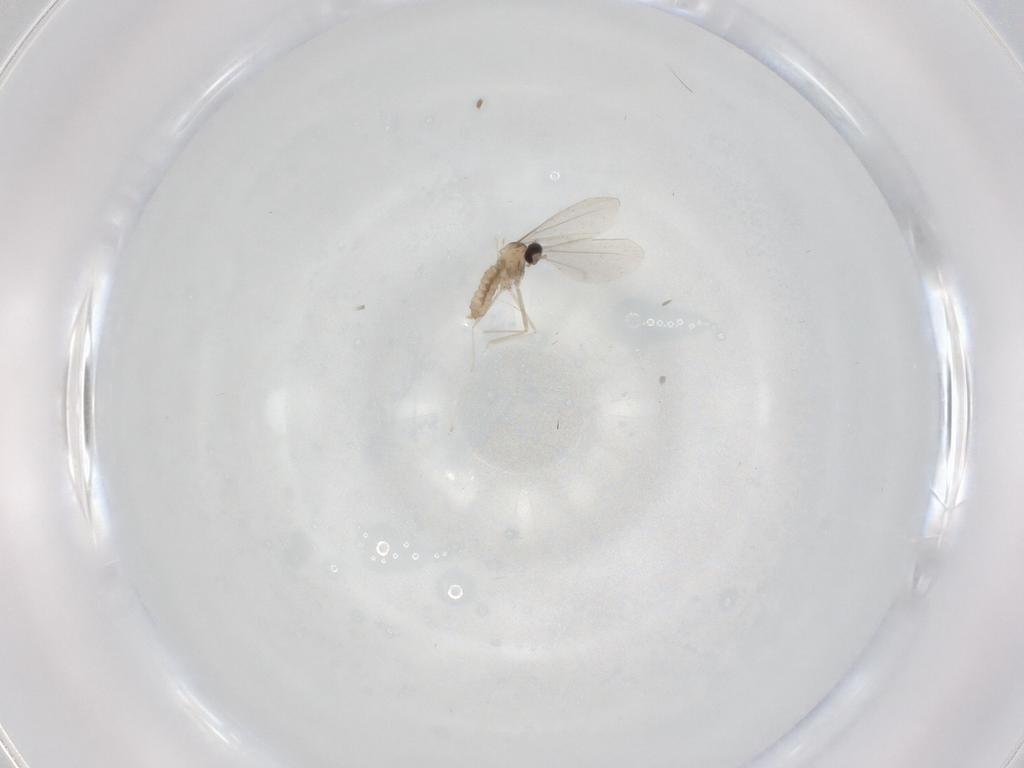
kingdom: Animalia
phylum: Arthropoda
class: Insecta
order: Diptera
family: Cecidomyiidae
